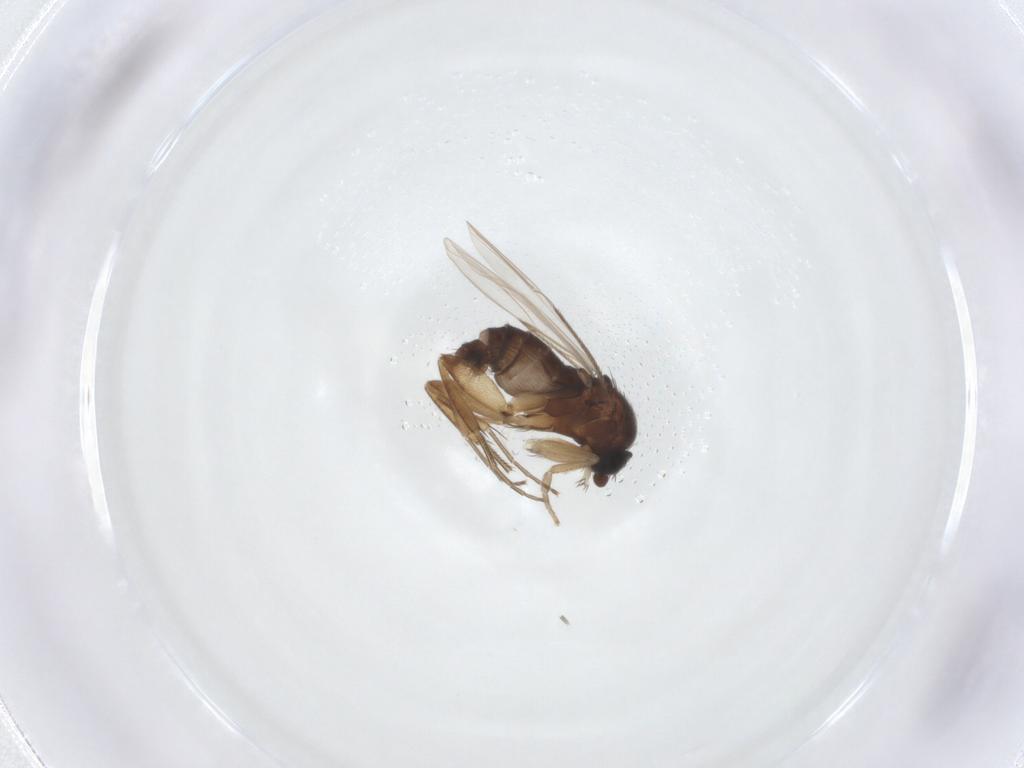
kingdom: Animalia
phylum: Arthropoda
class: Insecta
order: Diptera
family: Phoridae
